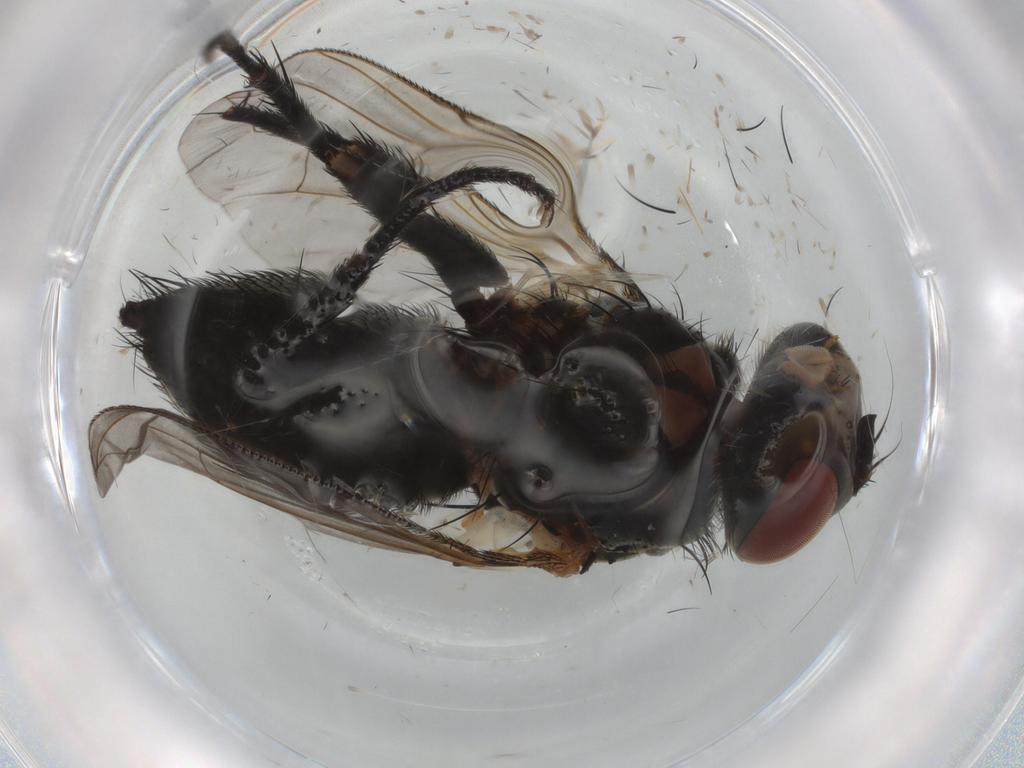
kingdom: Animalia
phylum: Arthropoda
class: Insecta
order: Diptera
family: Tachinidae
